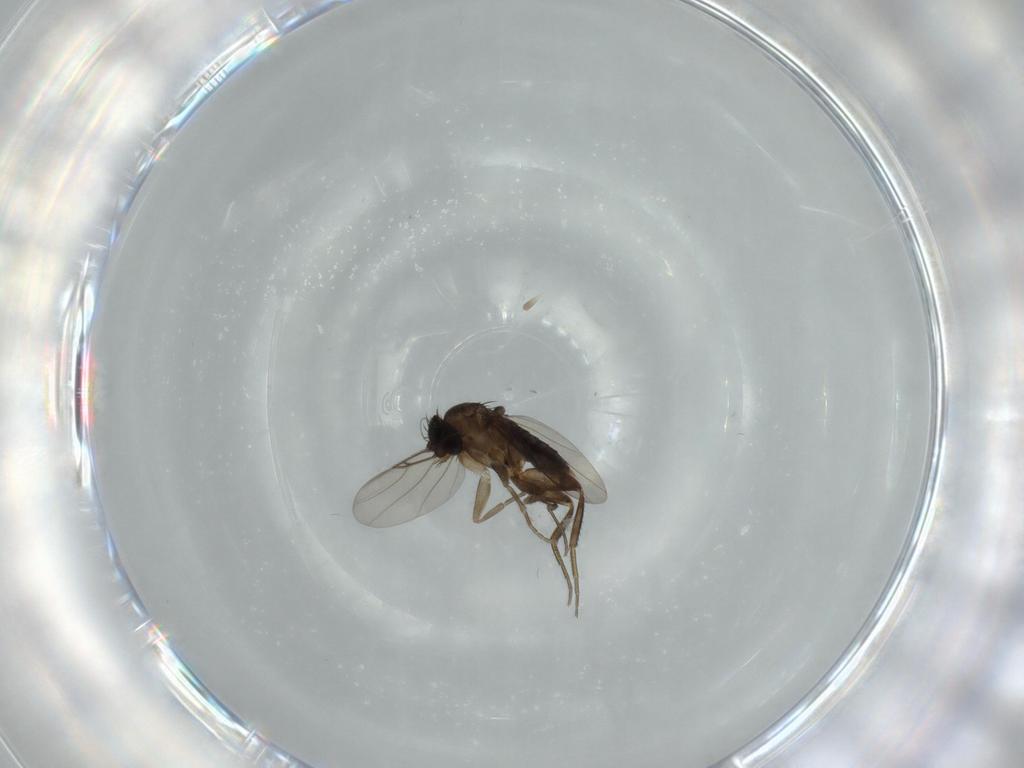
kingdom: Animalia
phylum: Arthropoda
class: Insecta
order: Diptera
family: Phoridae
